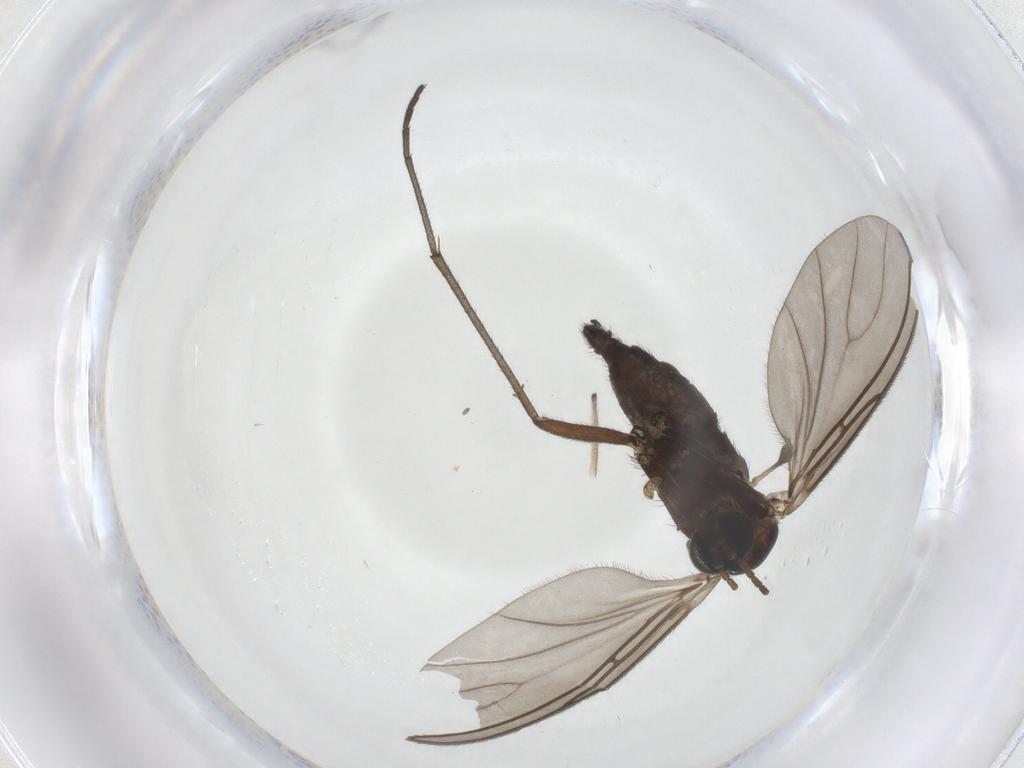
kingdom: Animalia
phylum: Arthropoda
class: Insecta
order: Diptera
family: Sciaridae
